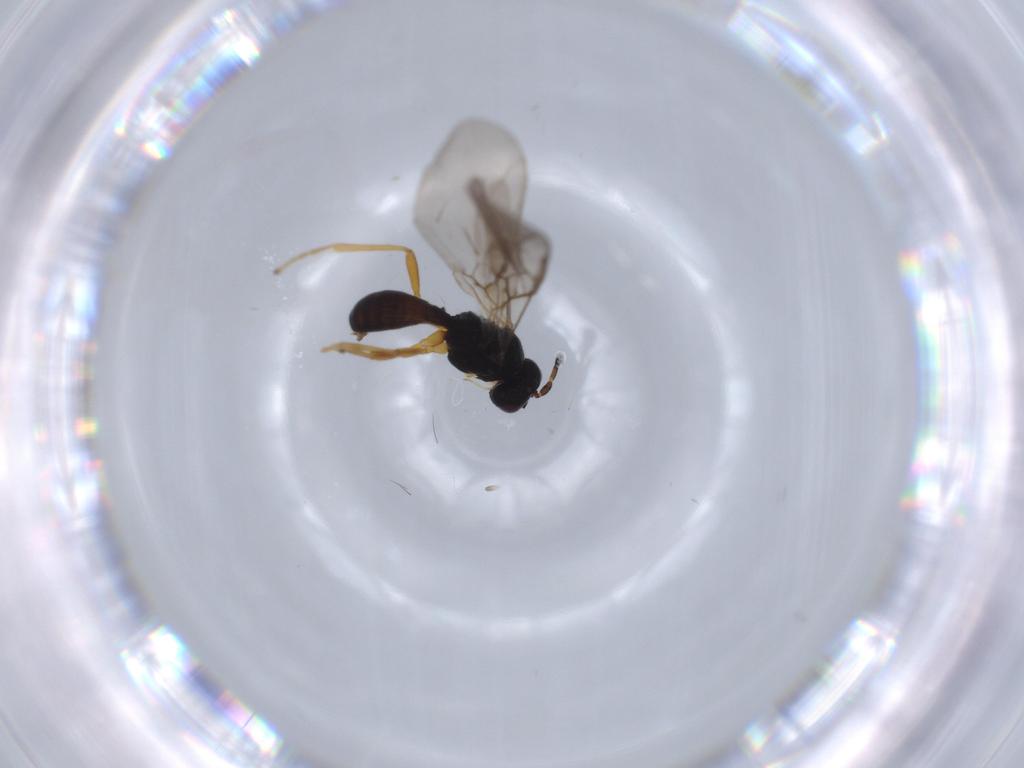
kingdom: Animalia
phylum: Arthropoda
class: Insecta
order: Hymenoptera
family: Braconidae
